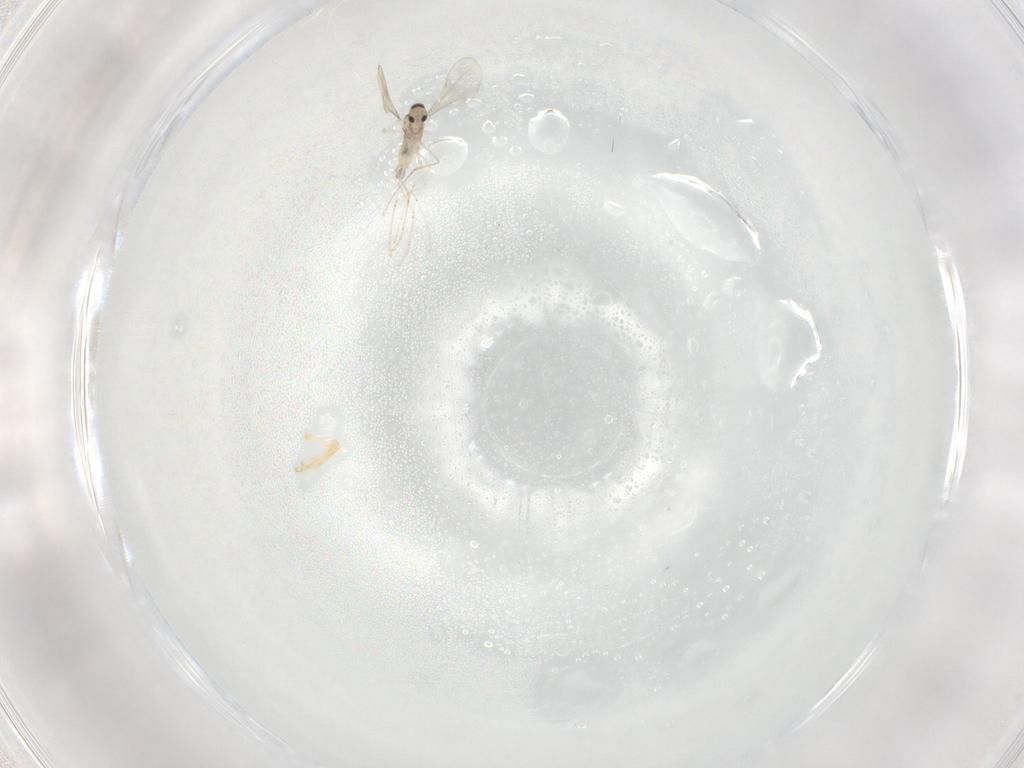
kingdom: Animalia
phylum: Arthropoda
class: Insecta
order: Diptera
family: Cecidomyiidae
